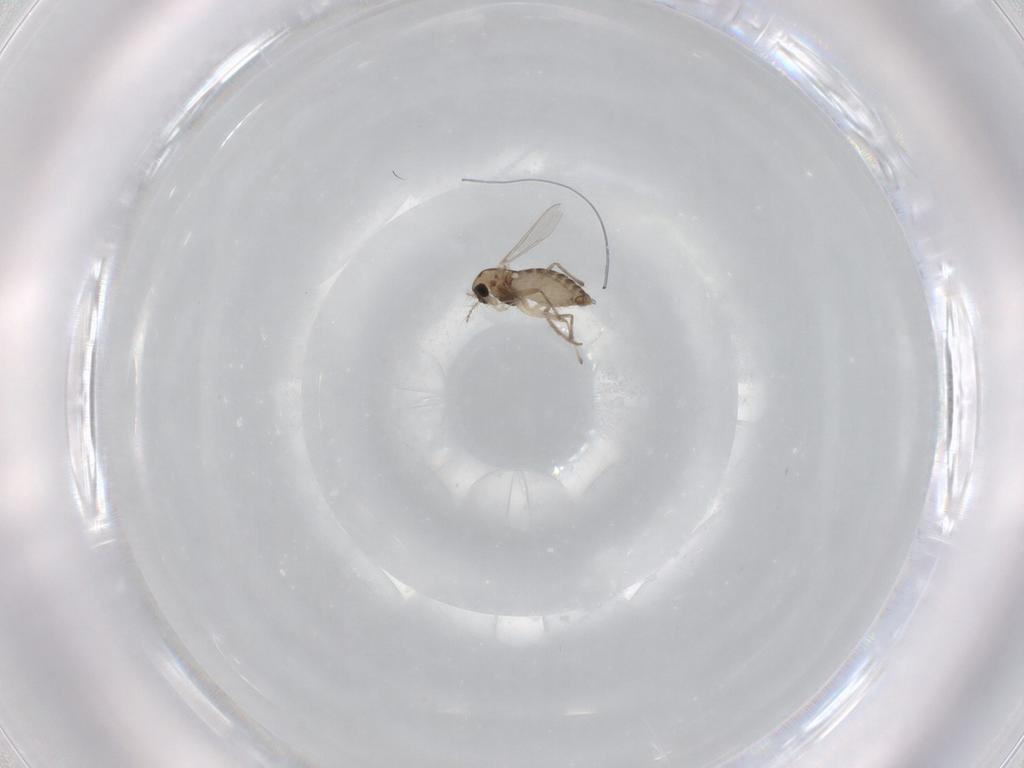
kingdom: Animalia
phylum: Arthropoda
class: Insecta
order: Diptera
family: Chironomidae
